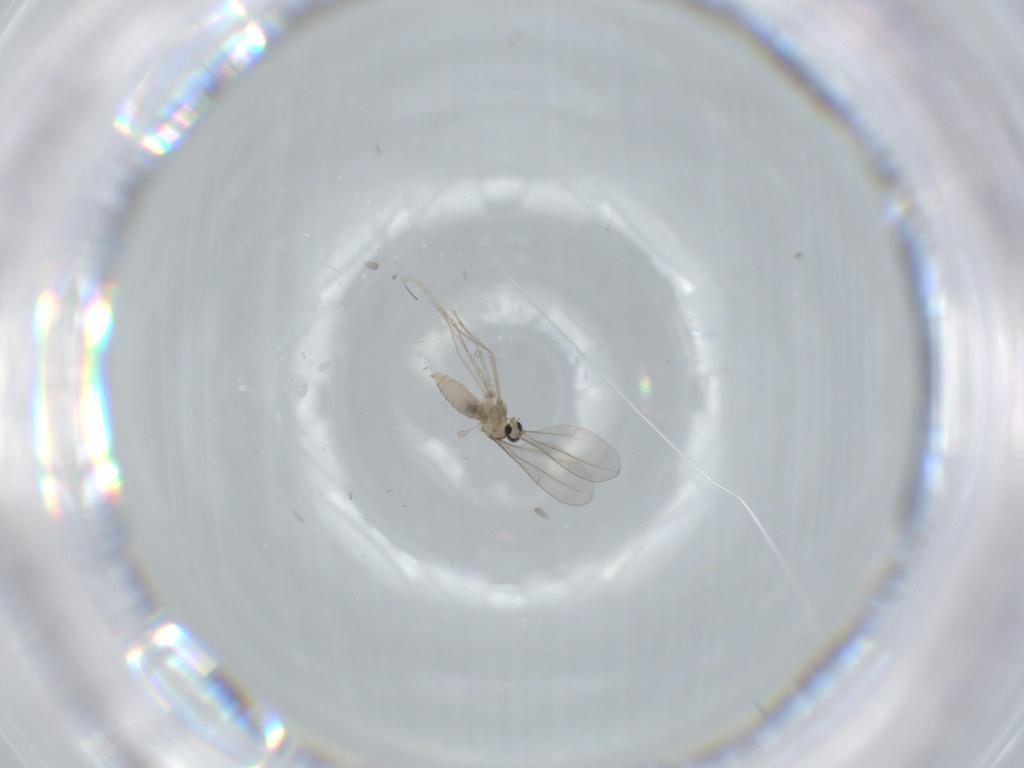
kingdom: Animalia
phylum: Arthropoda
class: Insecta
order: Diptera
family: Cecidomyiidae
